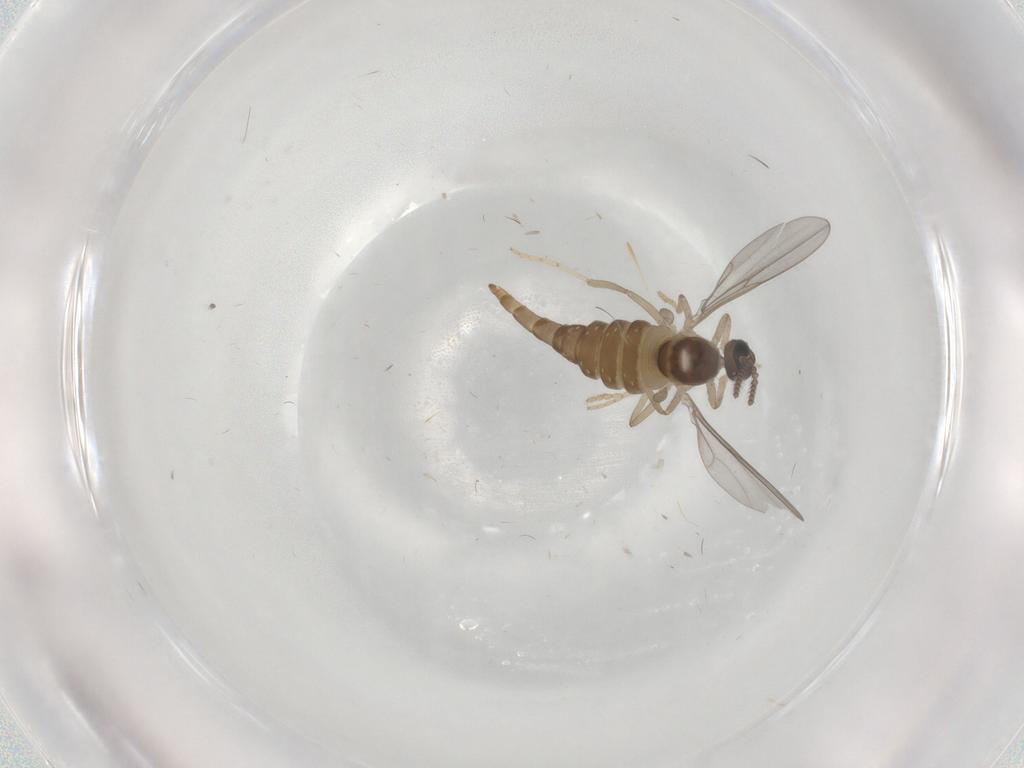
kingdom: Animalia
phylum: Arthropoda
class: Insecta
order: Diptera
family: Cecidomyiidae
